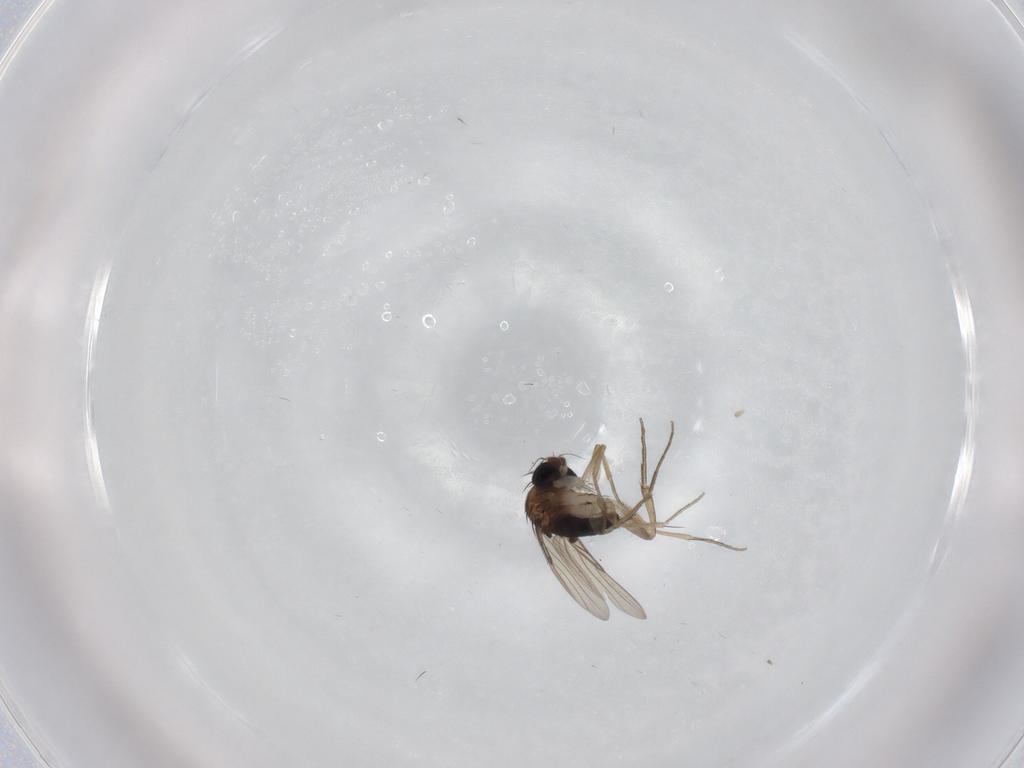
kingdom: Animalia
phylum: Arthropoda
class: Insecta
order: Diptera
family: Phoridae
